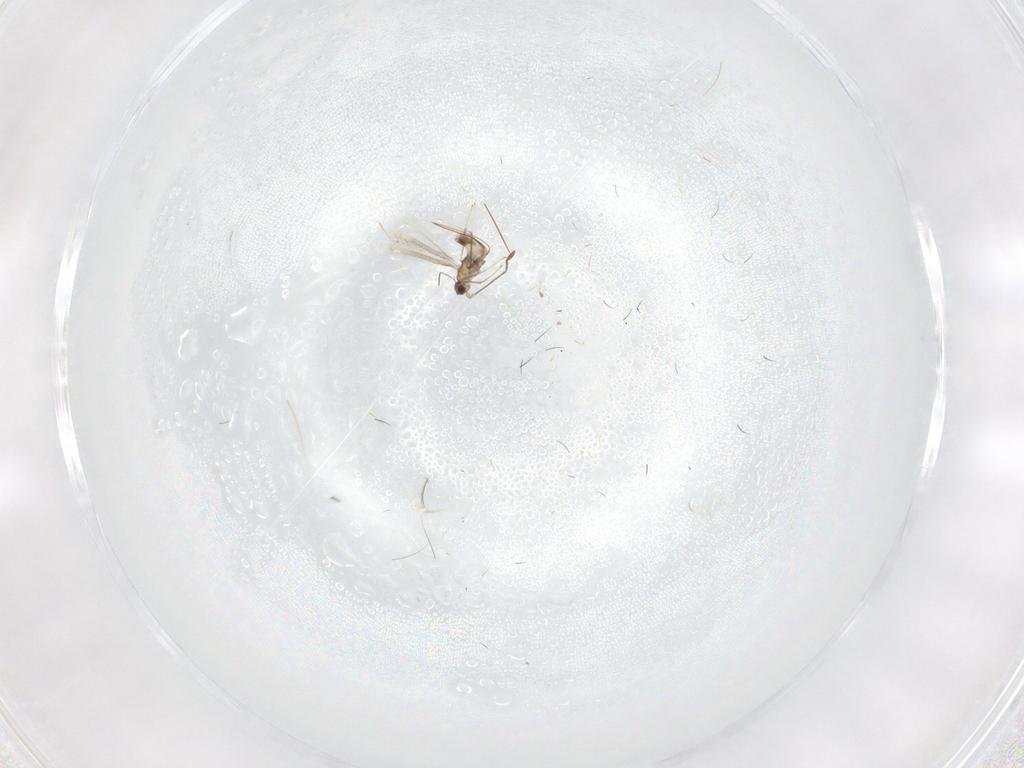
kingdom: Animalia
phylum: Arthropoda
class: Insecta
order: Hymenoptera
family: Mymaridae
